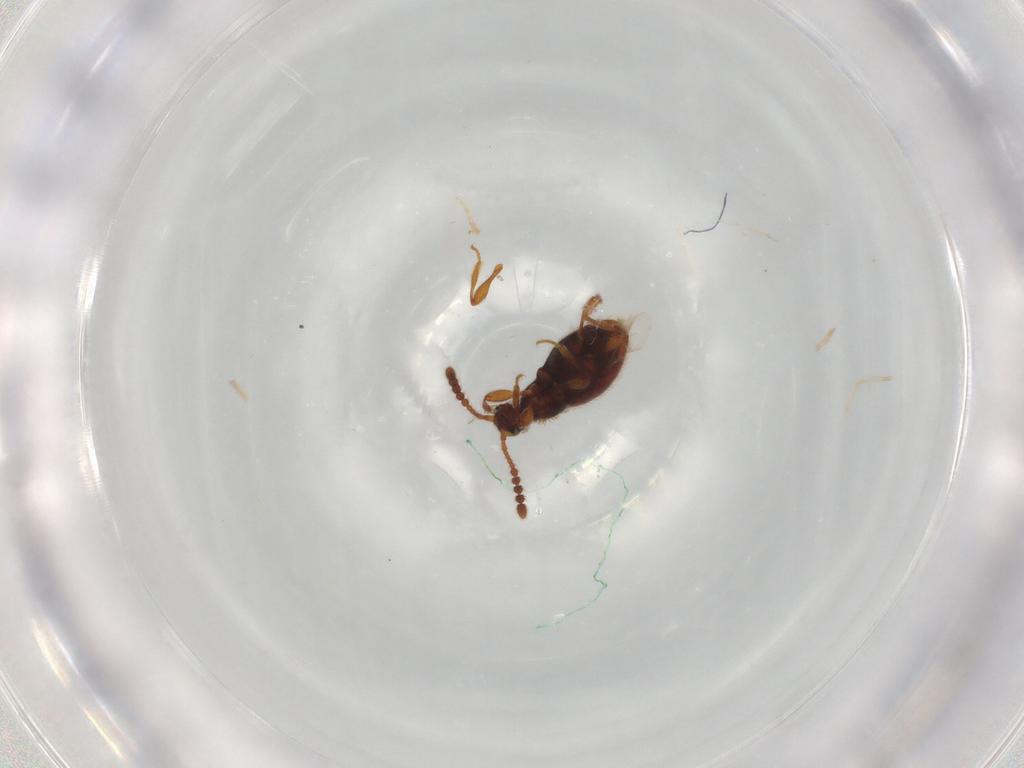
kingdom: Animalia
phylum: Arthropoda
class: Insecta
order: Coleoptera
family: Staphylinidae
